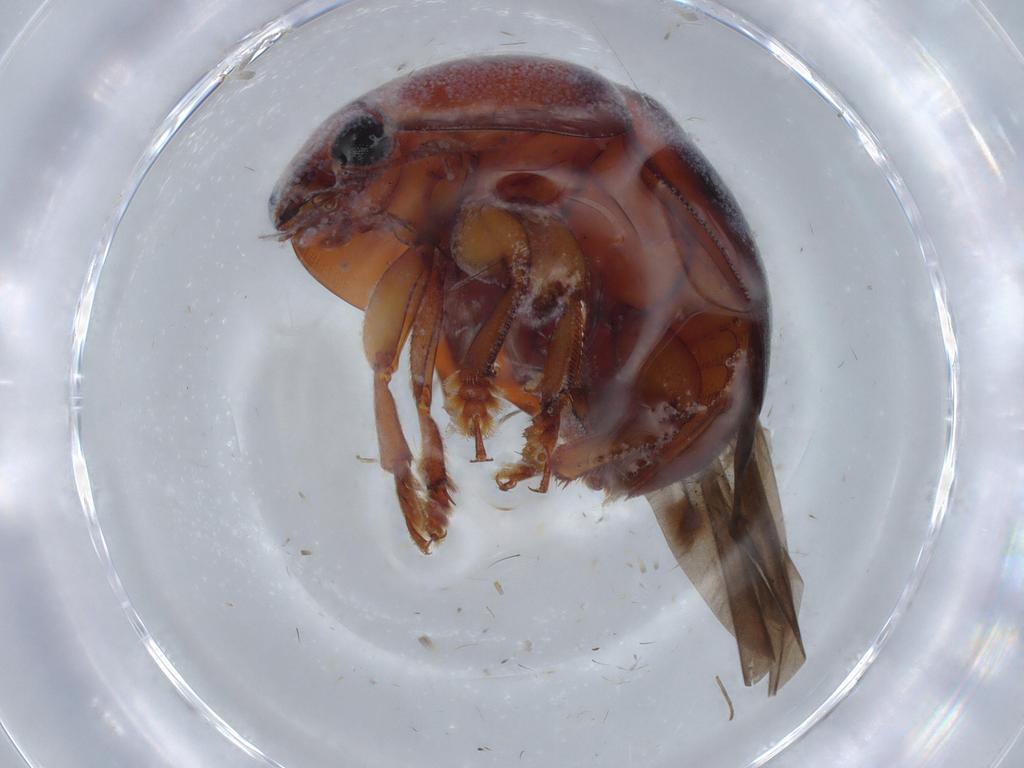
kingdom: Animalia
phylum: Arthropoda
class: Insecta
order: Coleoptera
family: Nitidulidae
